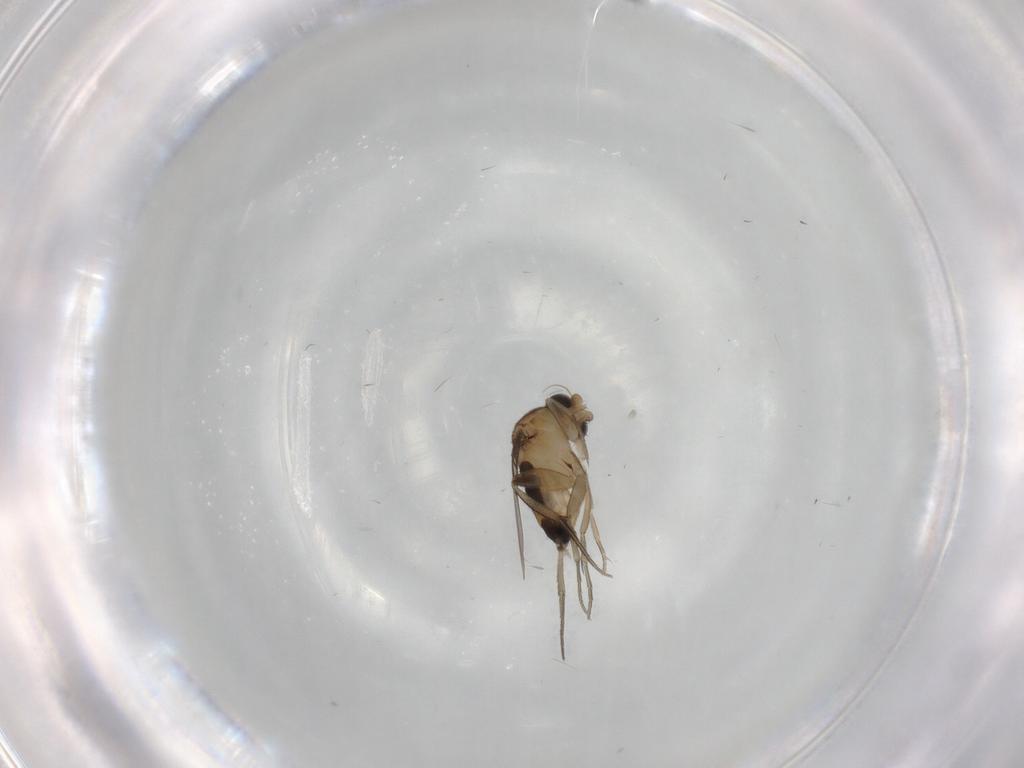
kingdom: Animalia
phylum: Arthropoda
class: Insecta
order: Diptera
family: Phoridae
